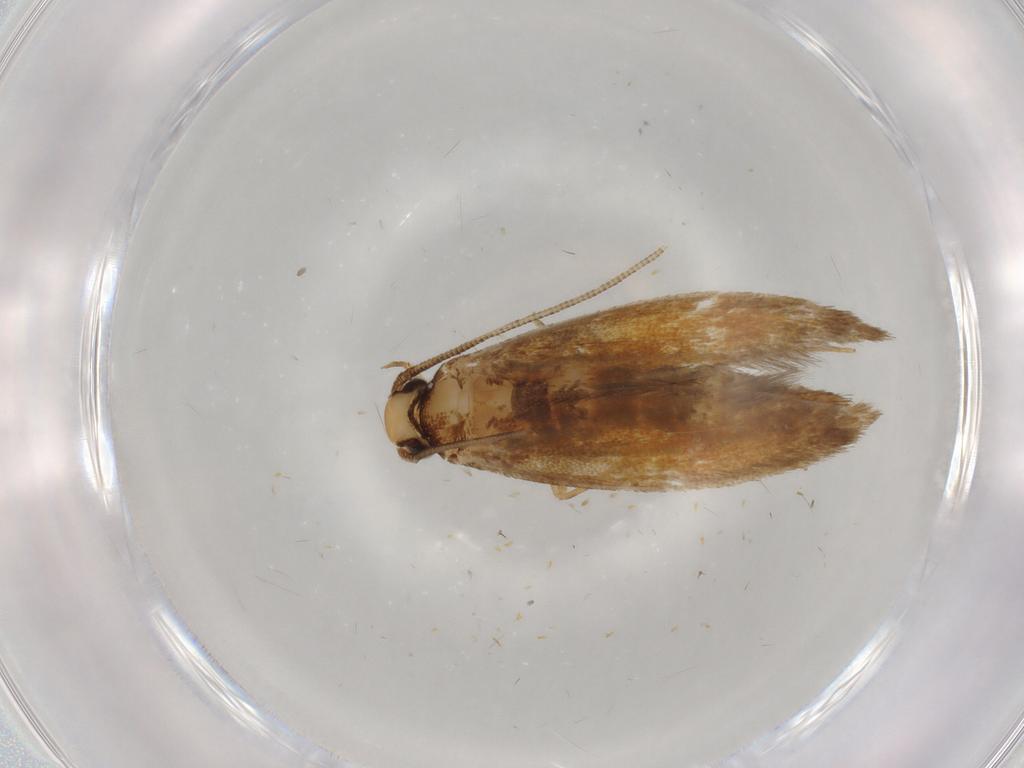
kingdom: Animalia
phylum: Arthropoda
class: Insecta
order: Lepidoptera
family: Tineidae
